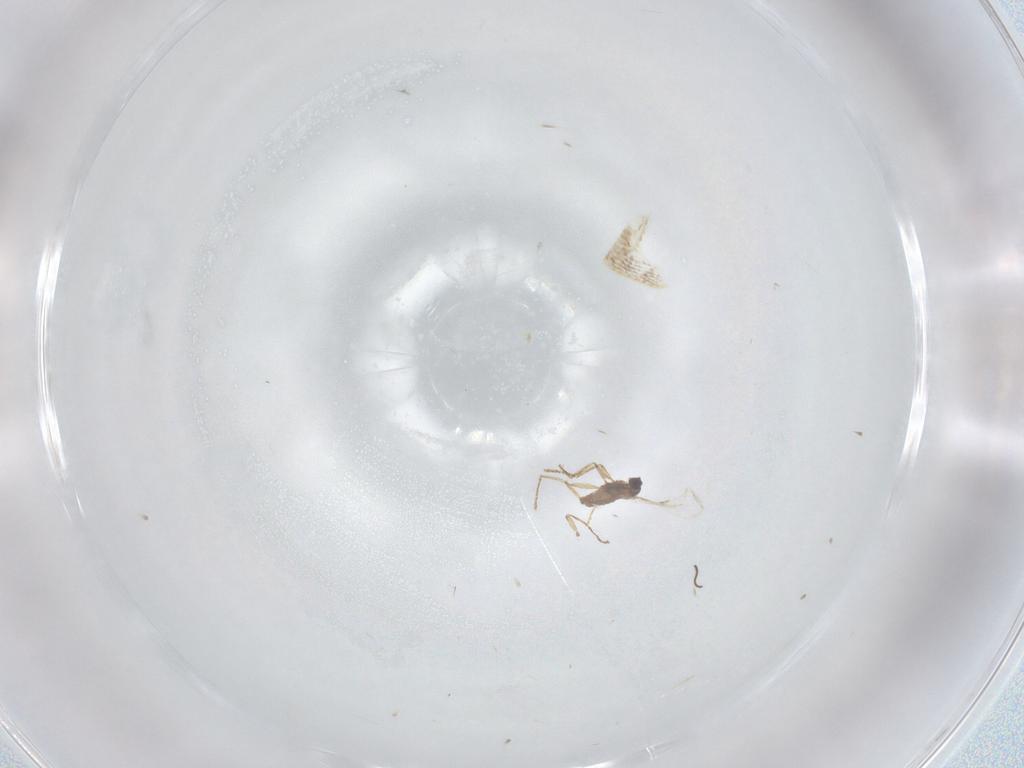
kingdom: Animalia
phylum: Arthropoda
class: Insecta
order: Diptera
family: Cecidomyiidae
